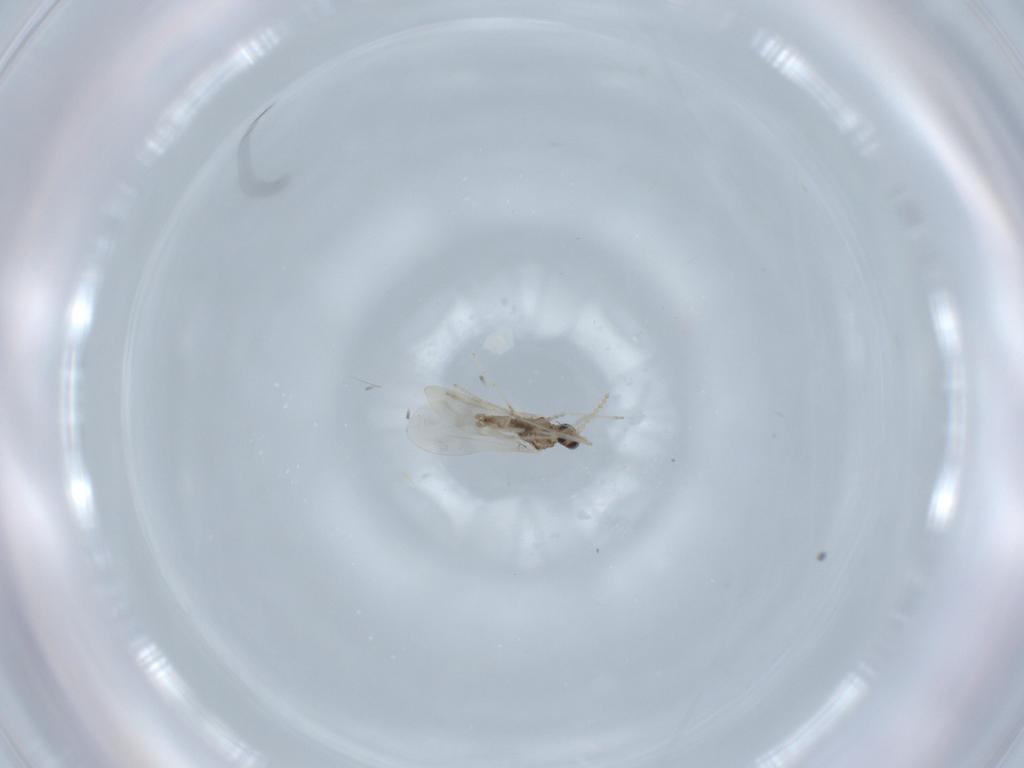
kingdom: Animalia
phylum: Arthropoda
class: Insecta
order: Diptera
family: Cecidomyiidae
